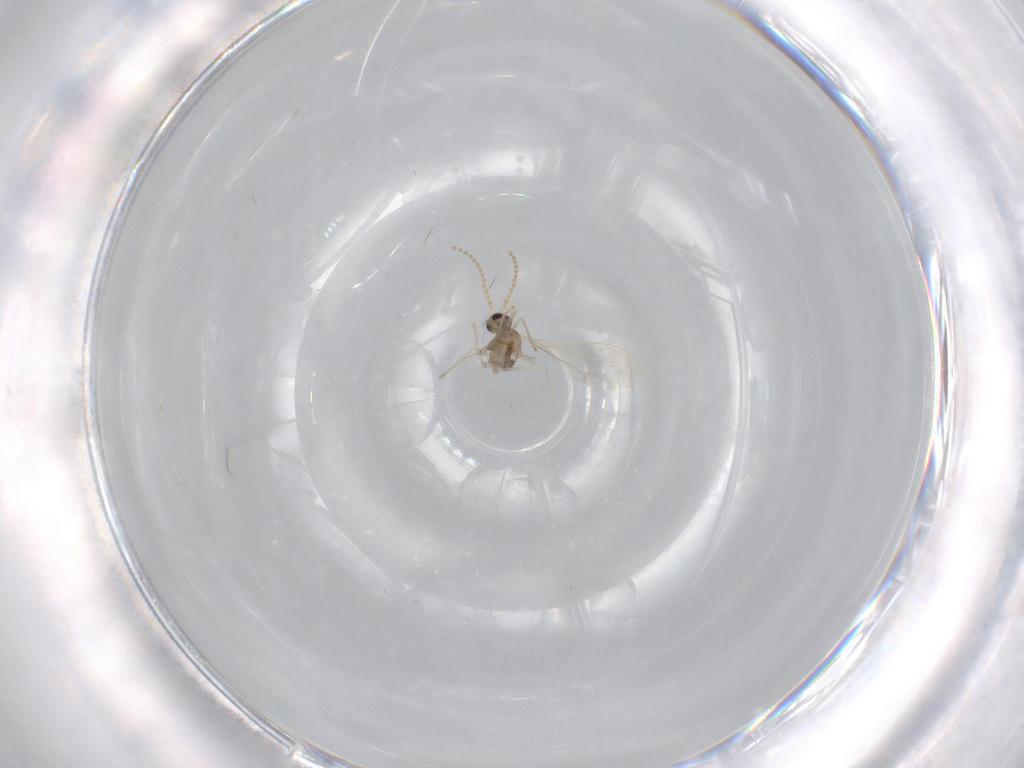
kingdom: Animalia
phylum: Arthropoda
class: Insecta
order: Diptera
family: Cecidomyiidae
